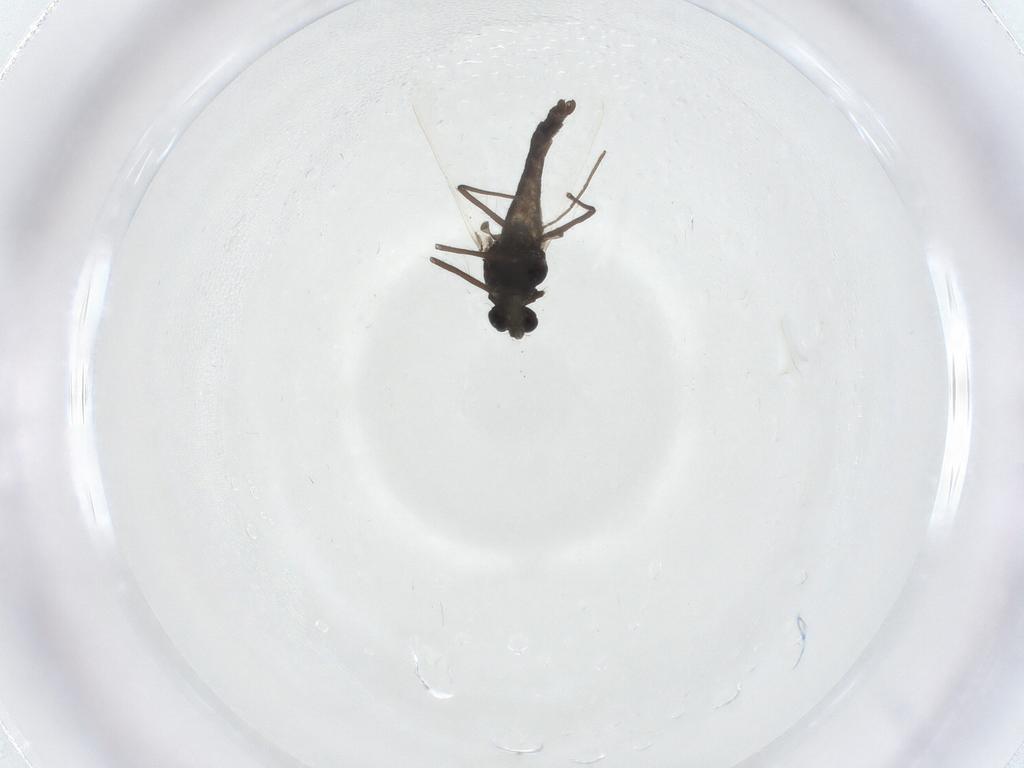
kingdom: Animalia
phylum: Arthropoda
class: Insecta
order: Diptera
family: Chironomidae
